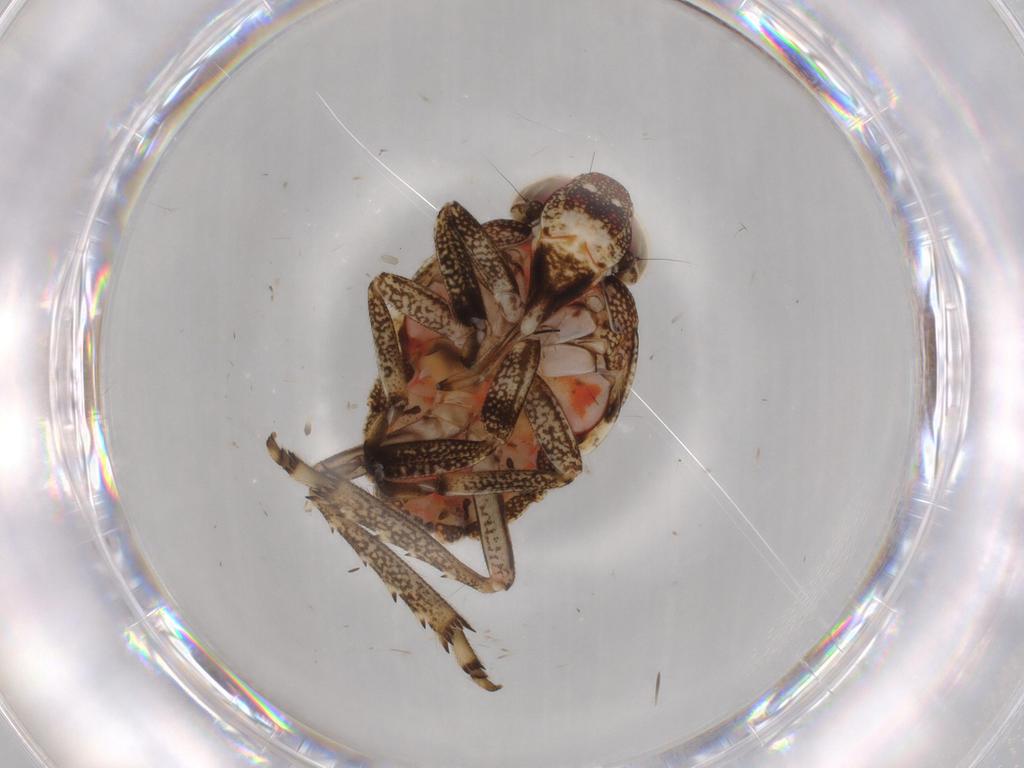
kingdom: Animalia
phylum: Arthropoda
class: Insecta
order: Hemiptera
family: Issidae
